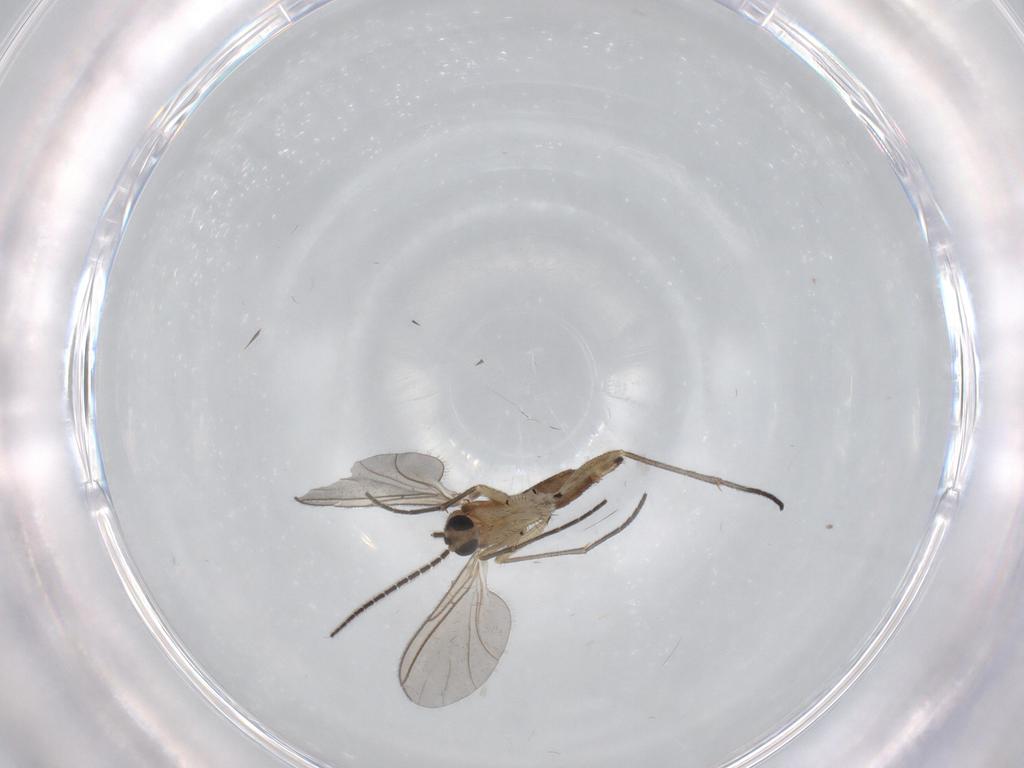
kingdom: Animalia
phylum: Arthropoda
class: Insecta
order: Diptera
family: Sciaridae
